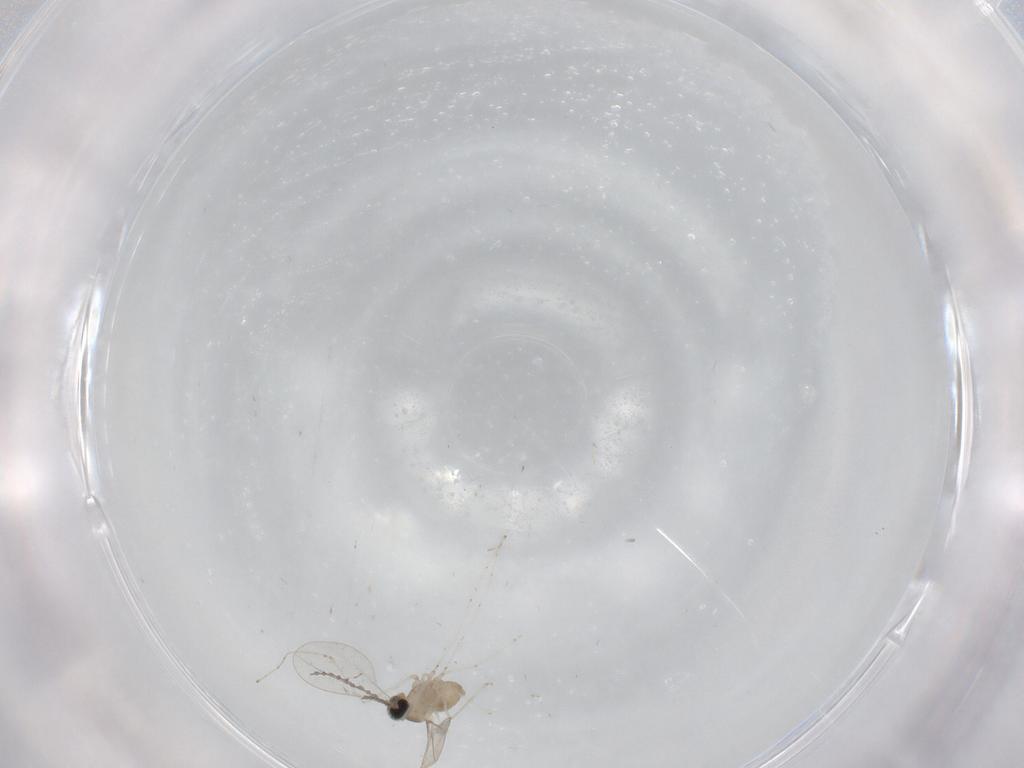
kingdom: Animalia
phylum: Arthropoda
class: Insecta
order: Diptera
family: Cecidomyiidae
